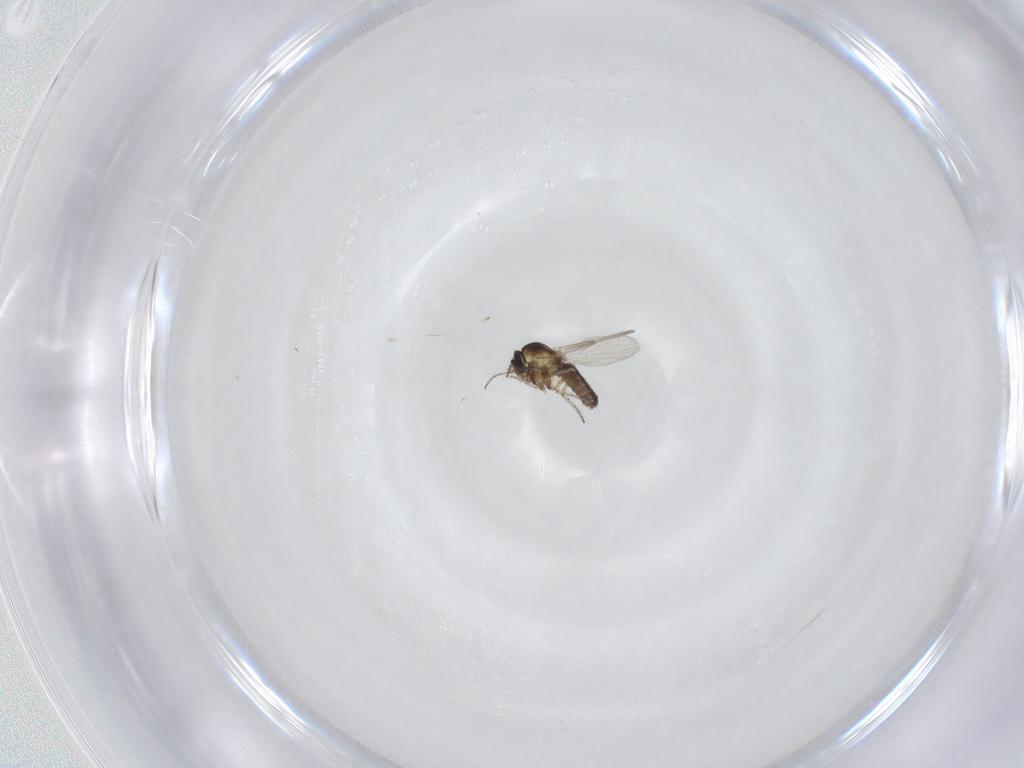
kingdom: Animalia
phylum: Arthropoda
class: Insecta
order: Diptera
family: Ceratopogonidae
